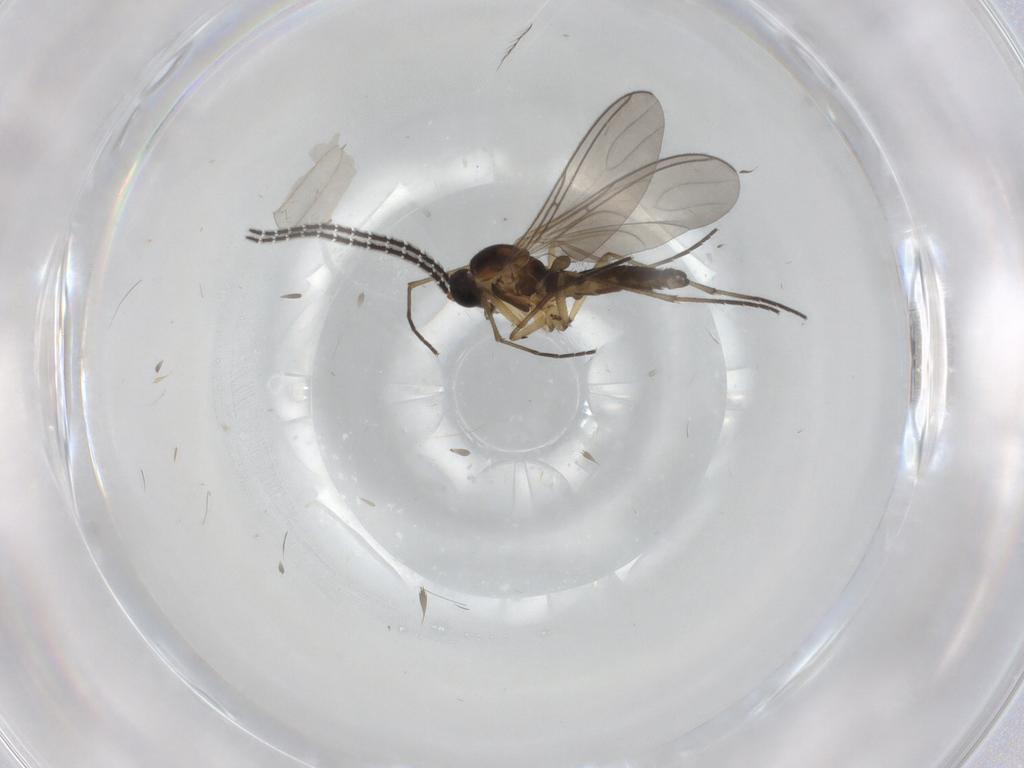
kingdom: Animalia
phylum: Arthropoda
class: Insecta
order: Diptera
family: Sciaridae
